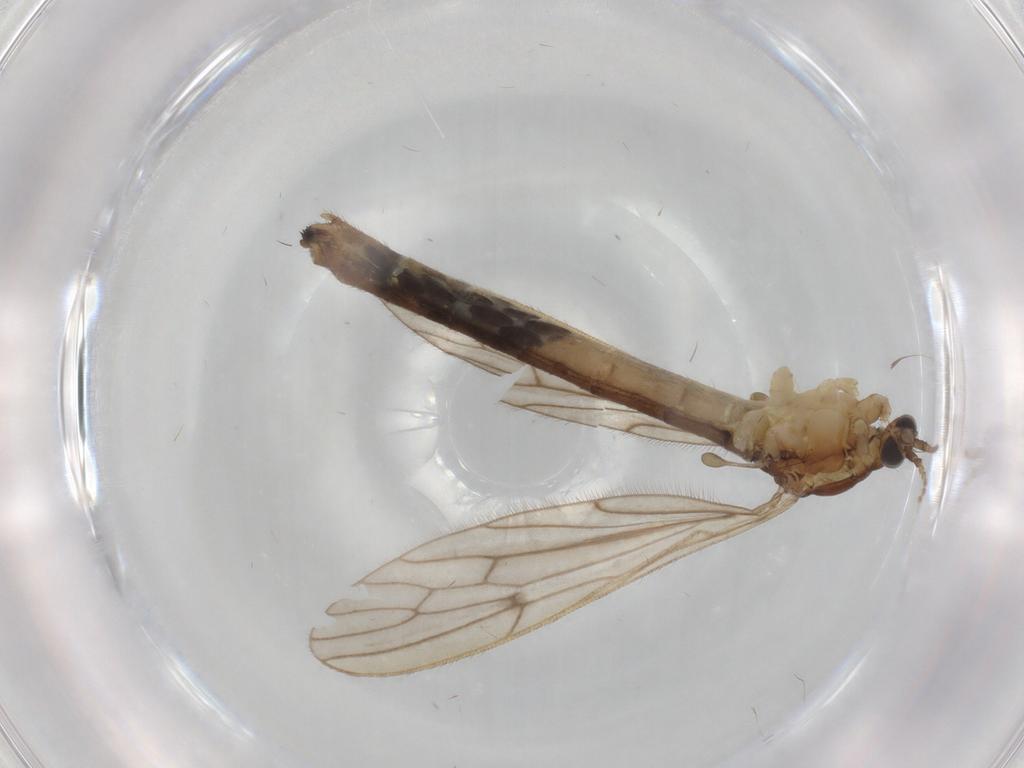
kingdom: Animalia
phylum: Arthropoda
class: Insecta
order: Diptera
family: Limoniidae
